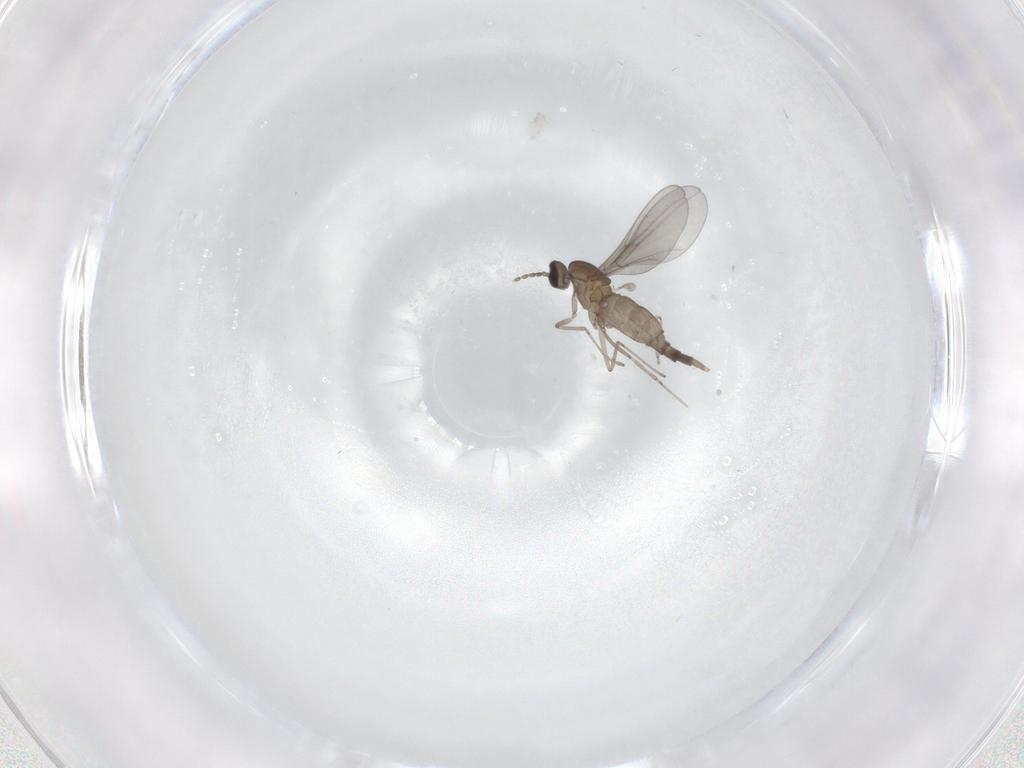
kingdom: Animalia
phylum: Arthropoda
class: Insecta
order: Diptera
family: Cecidomyiidae
